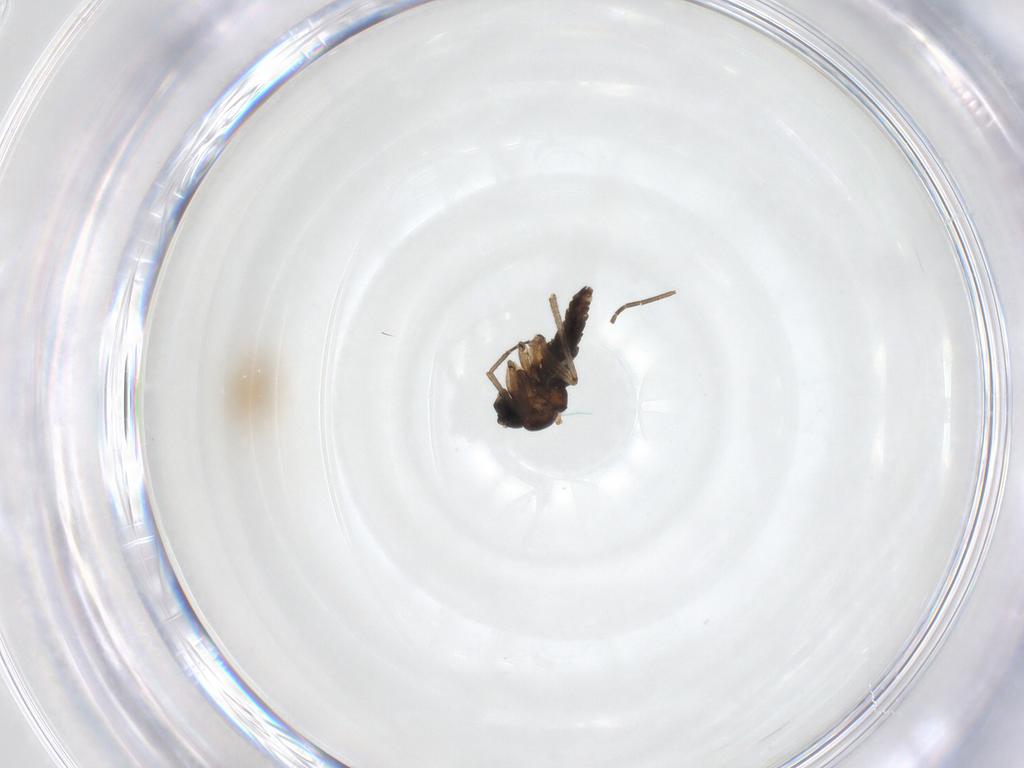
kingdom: Animalia
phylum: Arthropoda
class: Insecta
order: Diptera
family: Sciaridae
